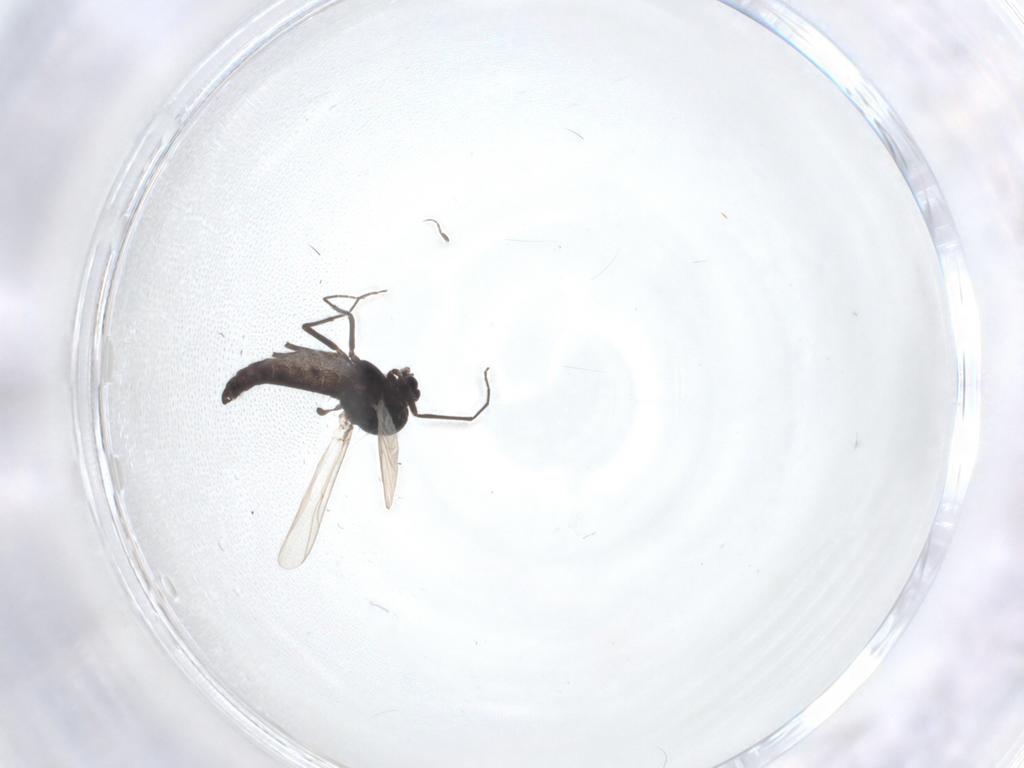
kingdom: Animalia
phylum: Arthropoda
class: Insecta
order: Diptera
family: Chironomidae
